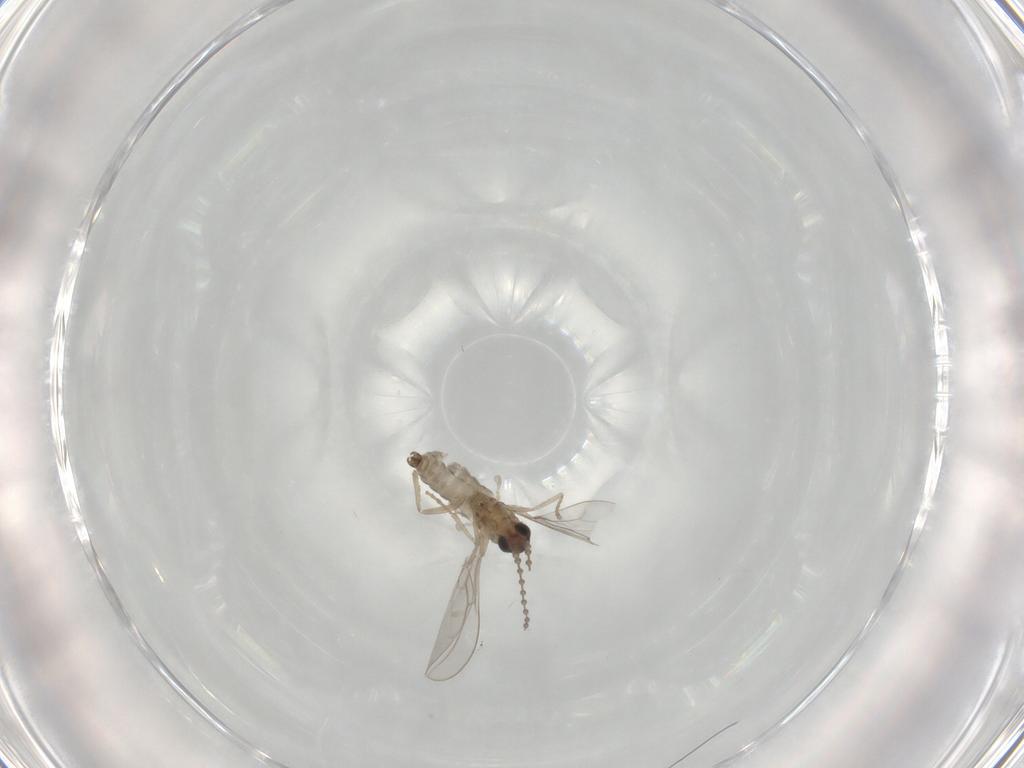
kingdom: Animalia
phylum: Arthropoda
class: Insecta
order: Diptera
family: Cecidomyiidae
